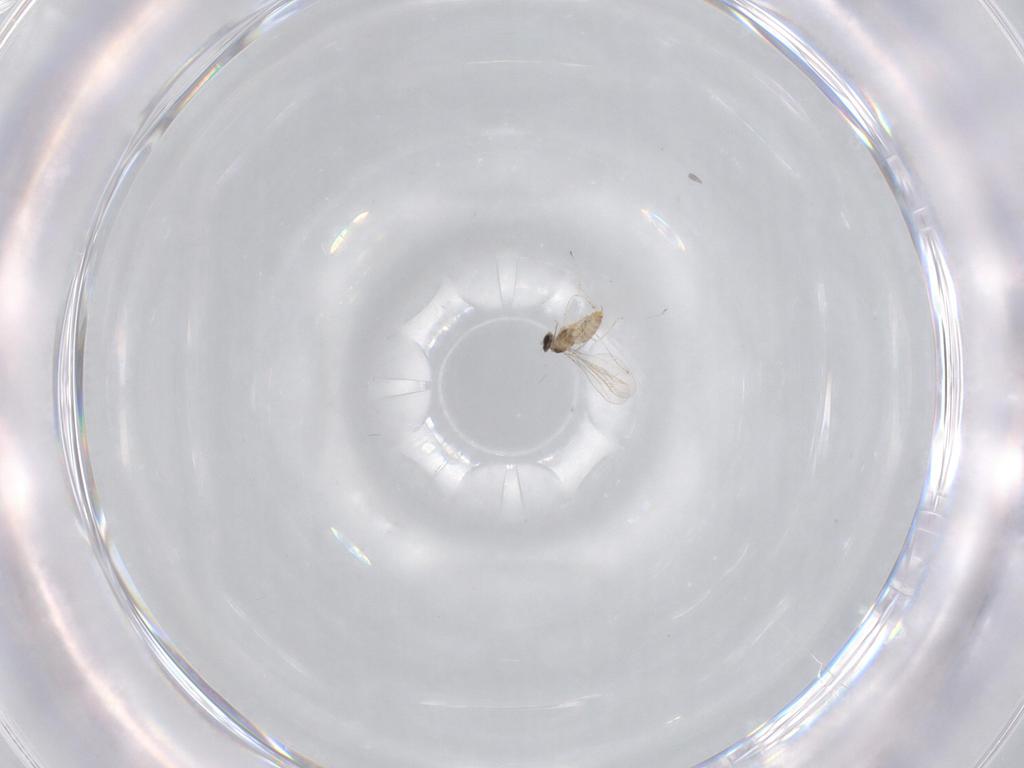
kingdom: Animalia
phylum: Arthropoda
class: Insecta
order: Diptera
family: Cecidomyiidae
